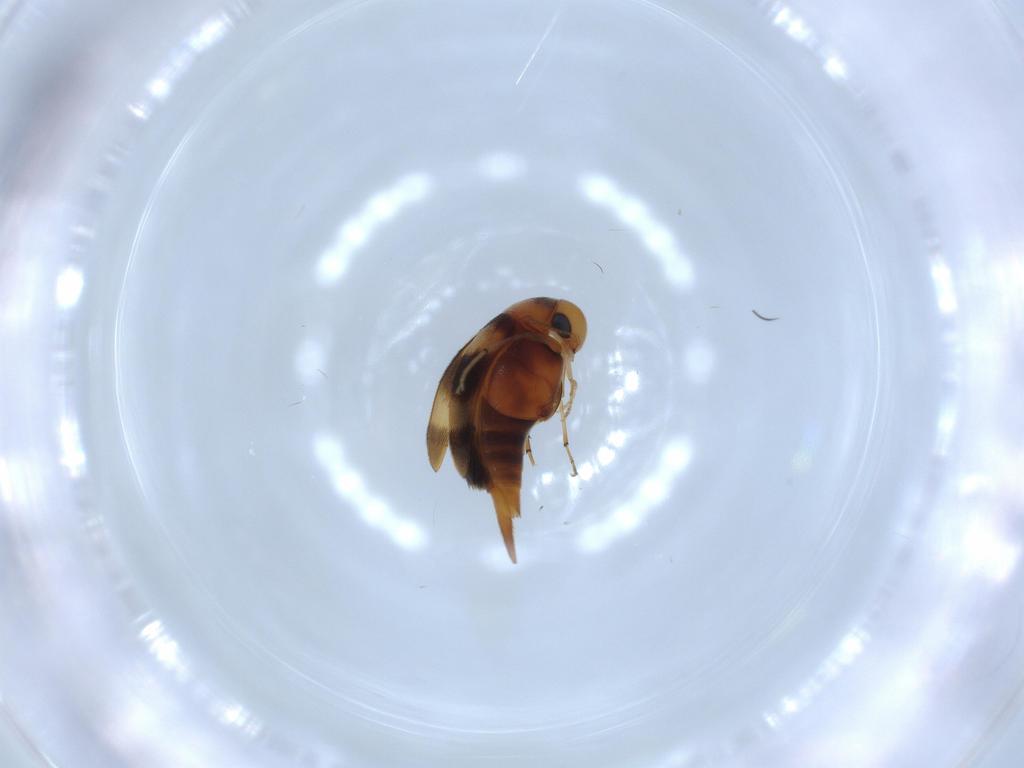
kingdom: Animalia
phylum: Arthropoda
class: Insecta
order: Coleoptera
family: Mordellidae
